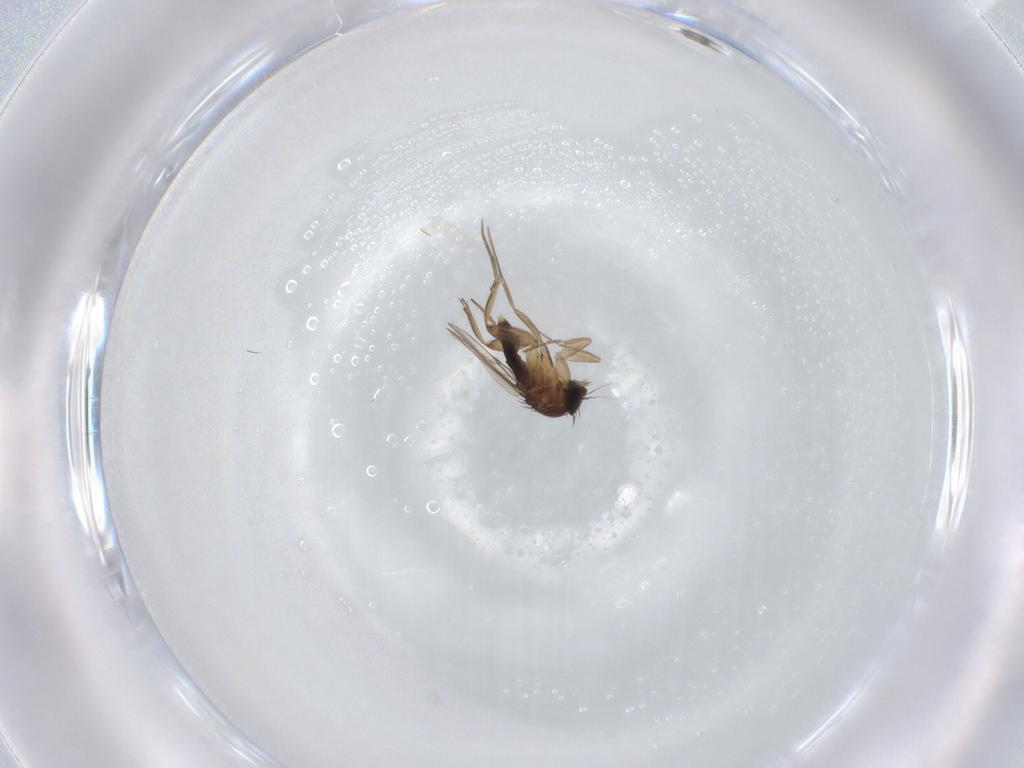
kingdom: Animalia
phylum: Arthropoda
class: Insecta
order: Diptera
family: Phoridae
